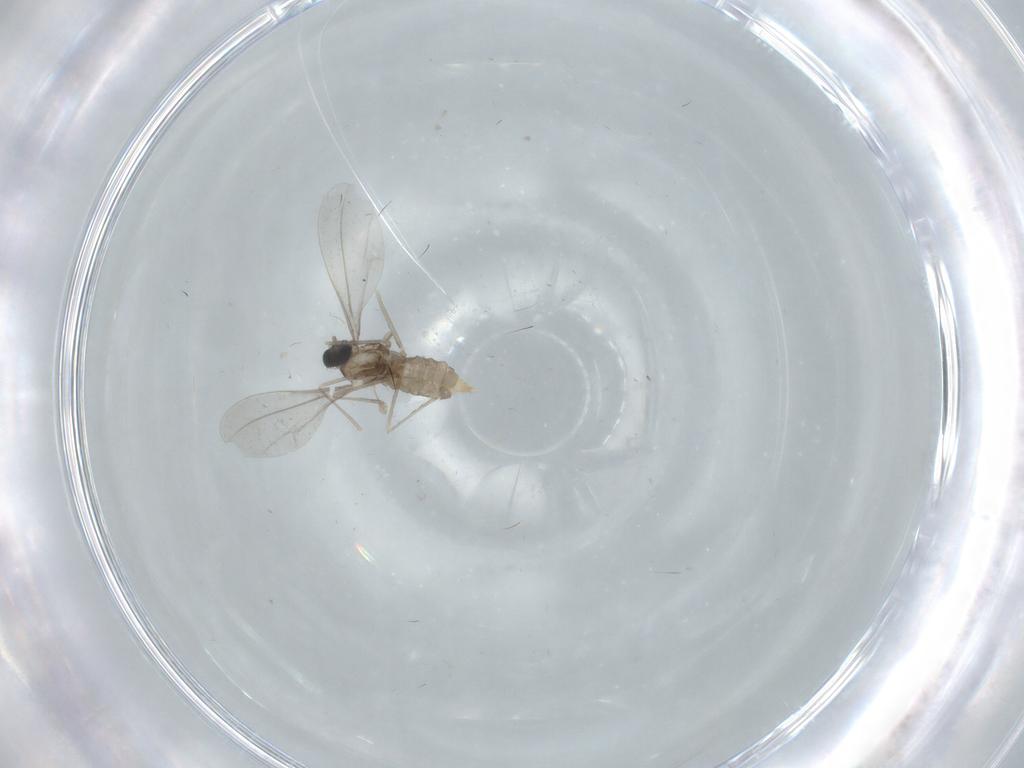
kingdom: Animalia
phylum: Arthropoda
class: Insecta
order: Diptera
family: Cecidomyiidae
